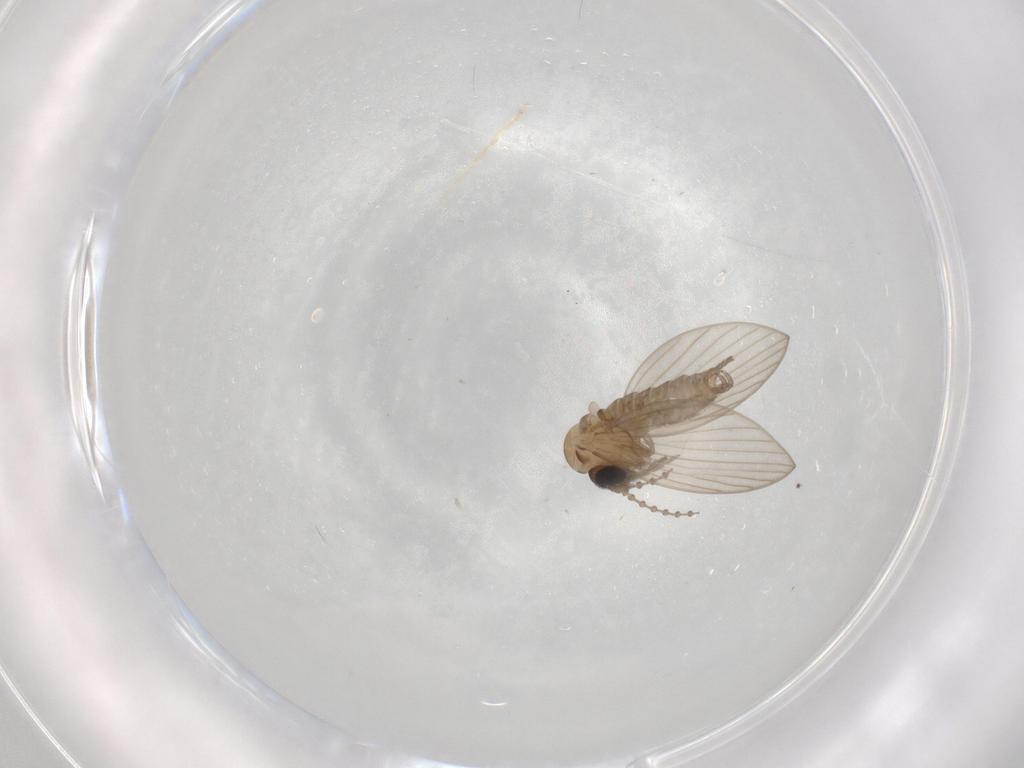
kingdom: Animalia
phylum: Arthropoda
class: Insecta
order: Diptera
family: Psychodidae
